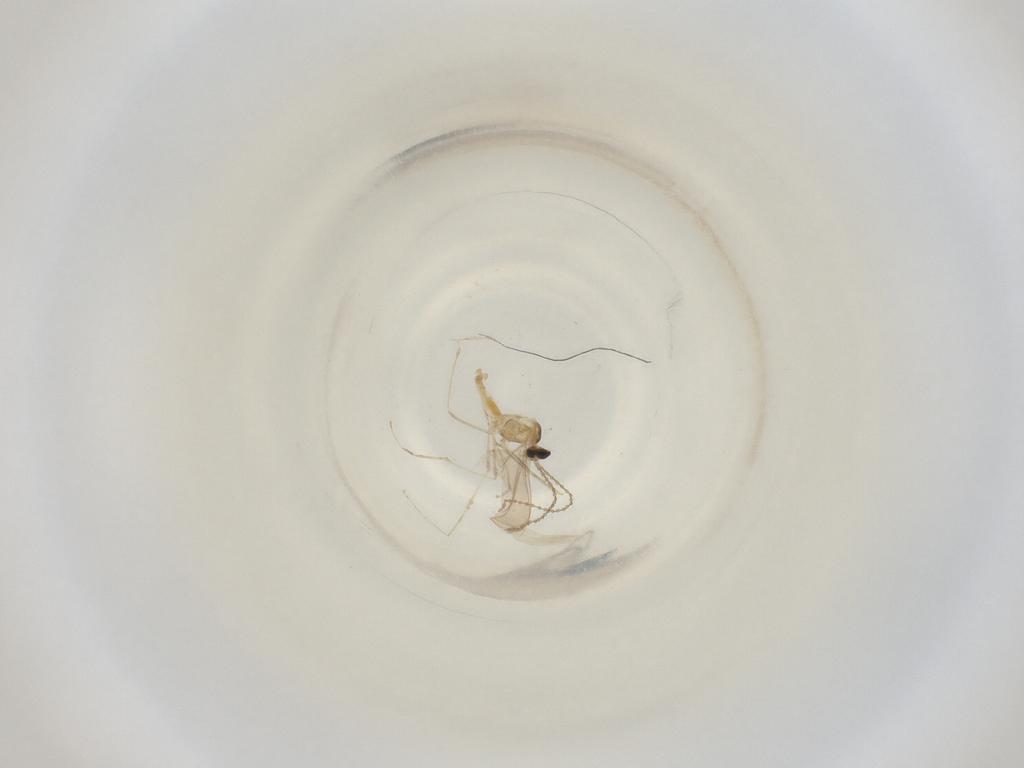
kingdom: Animalia
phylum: Arthropoda
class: Insecta
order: Diptera
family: Cecidomyiidae
